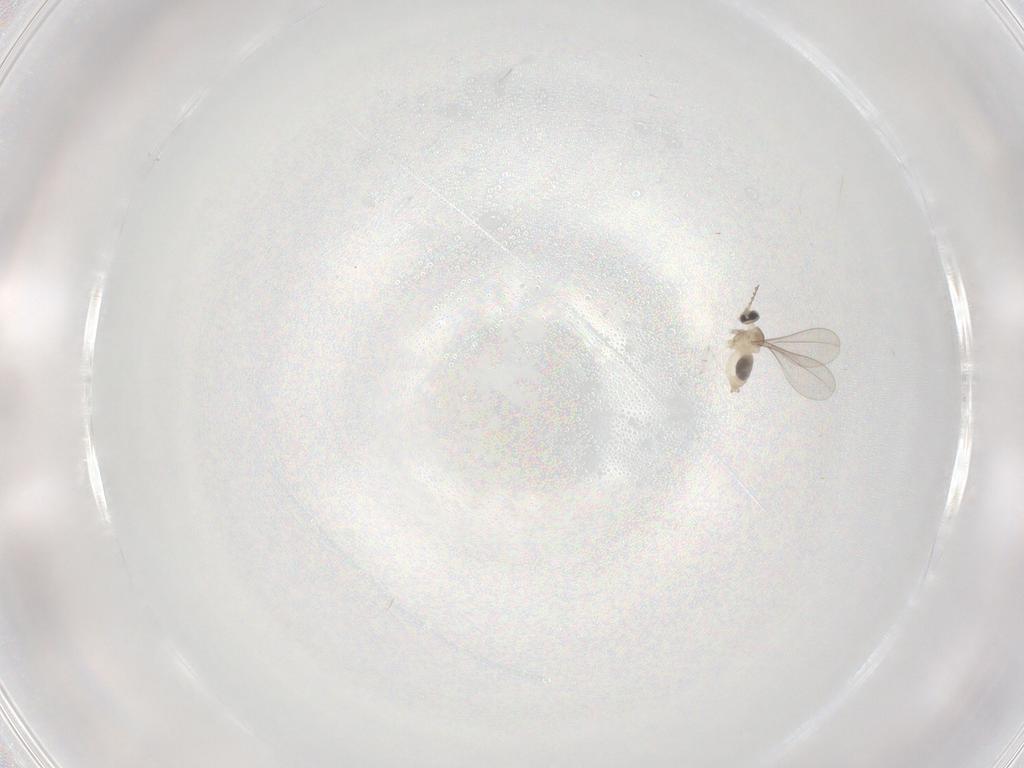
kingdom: Animalia
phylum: Arthropoda
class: Insecta
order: Diptera
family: Cecidomyiidae
